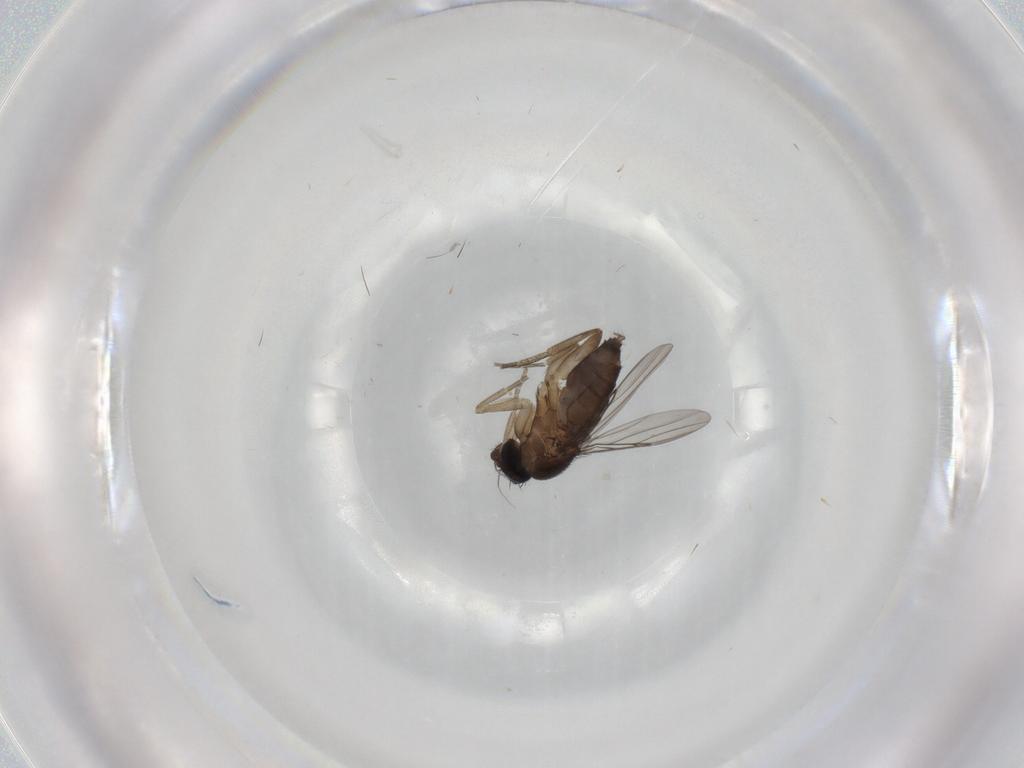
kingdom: Animalia
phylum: Arthropoda
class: Insecta
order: Diptera
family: Phoridae
